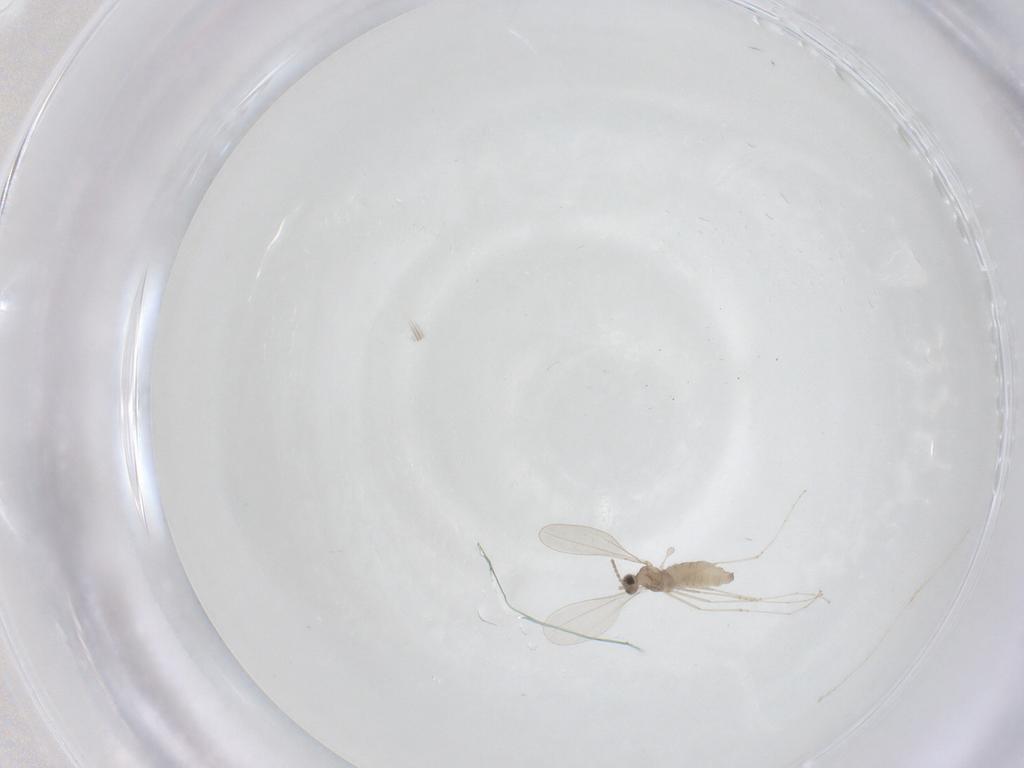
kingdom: Animalia
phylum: Arthropoda
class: Insecta
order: Diptera
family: Cecidomyiidae
